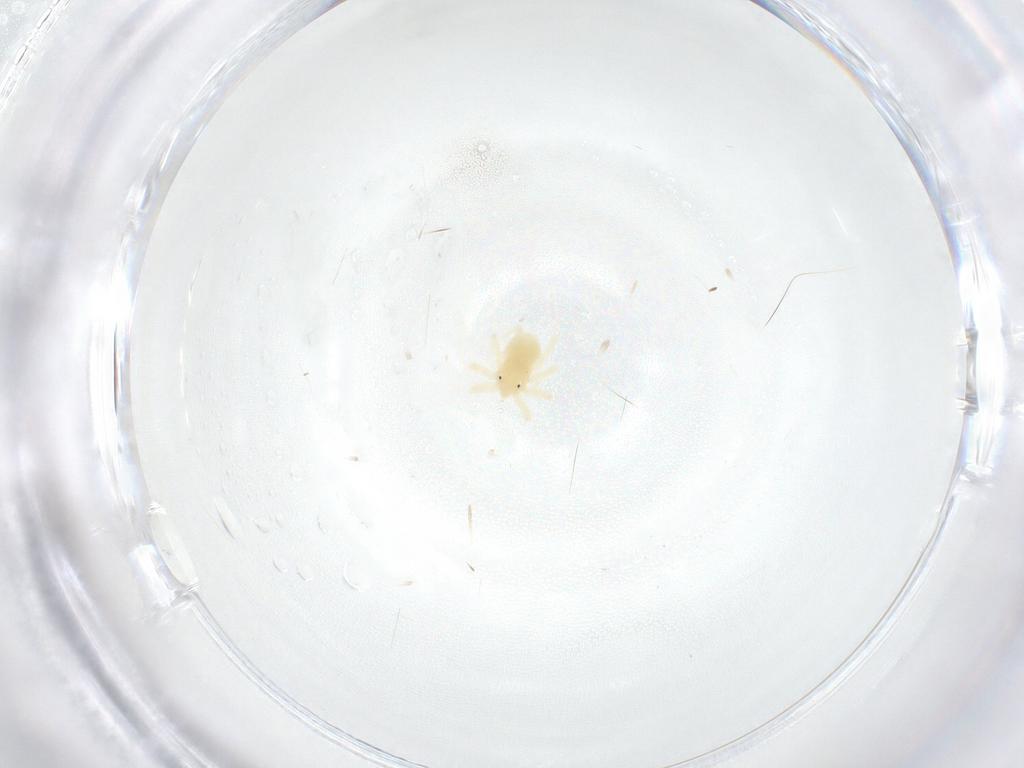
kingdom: Animalia
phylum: Arthropoda
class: Arachnida
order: Trombidiformes
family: Anystidae
